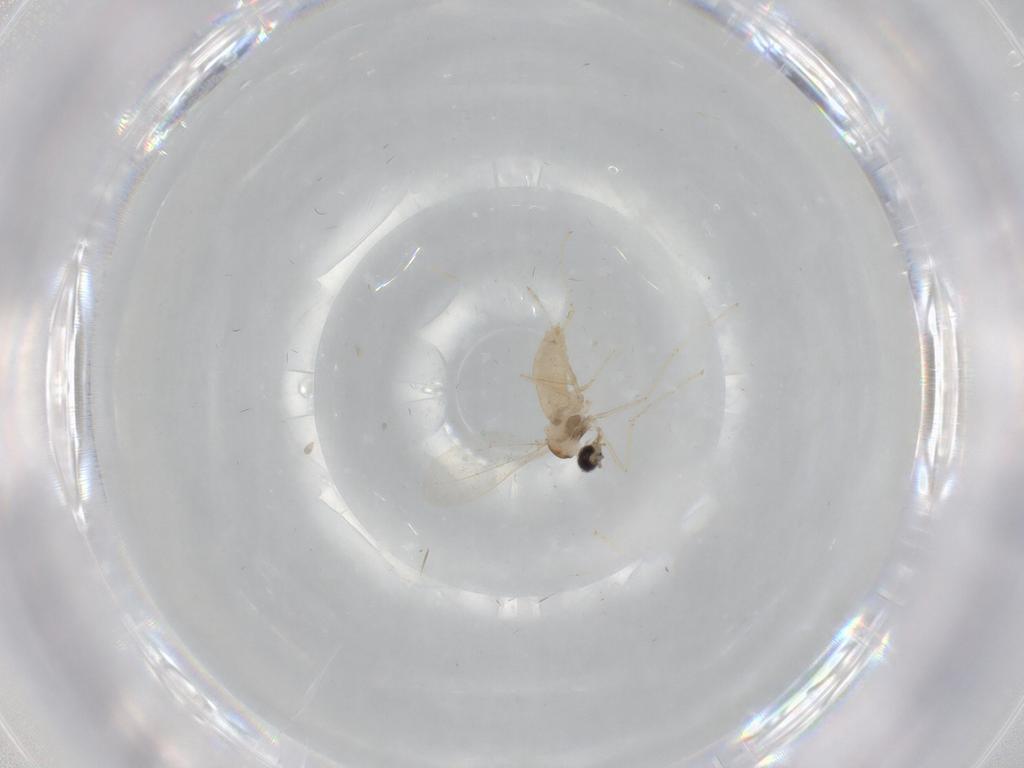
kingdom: Animalia
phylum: Arthropoda
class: Insecta
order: Diptera
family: Cecidomyiidae
